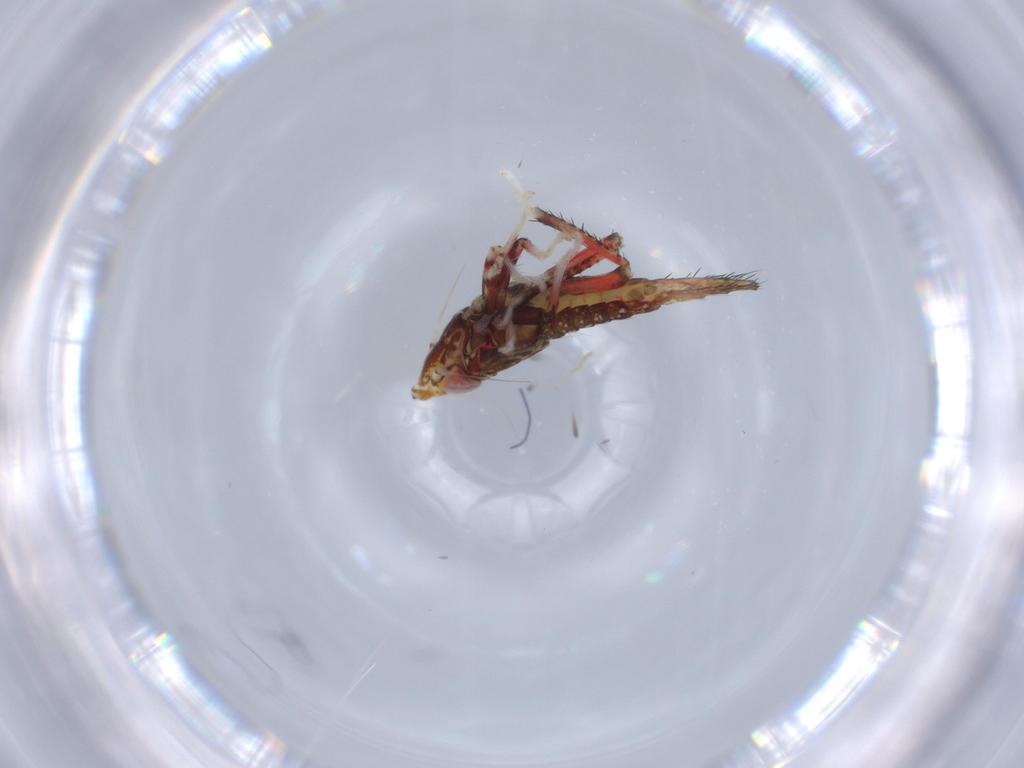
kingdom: Animalia
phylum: Arthropoda
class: Insecta
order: Hemiptera
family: Cicadellidae
